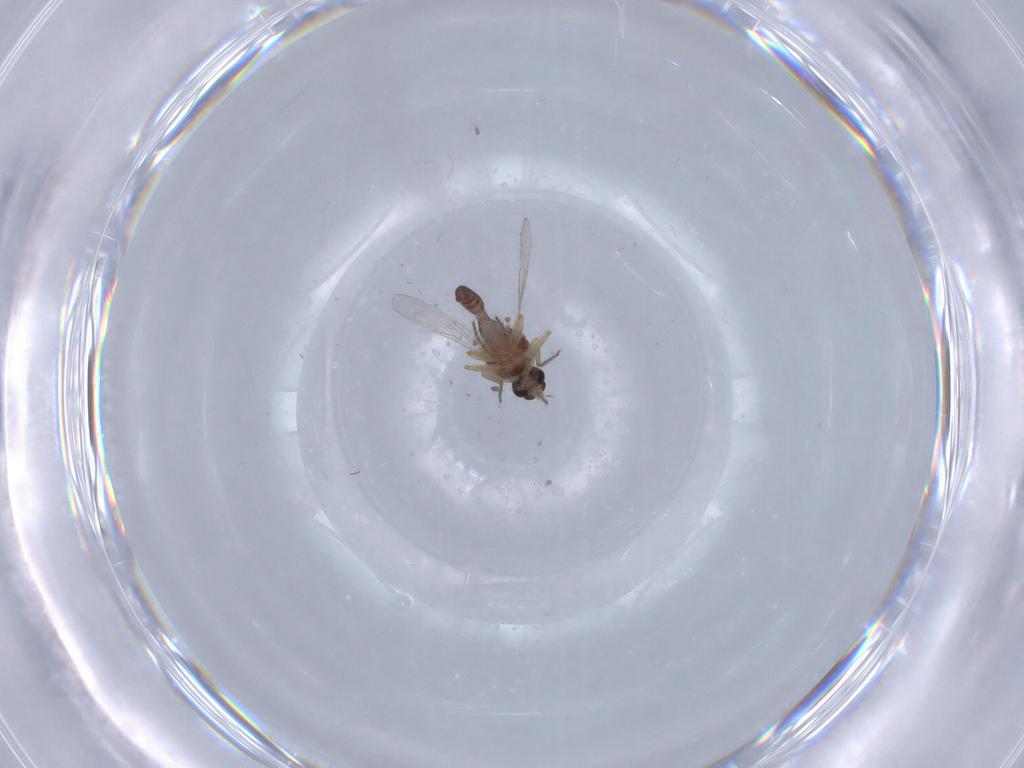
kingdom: Animalia
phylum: Arthropoda
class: Insecta
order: Diptera
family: Ceratopogonidae
